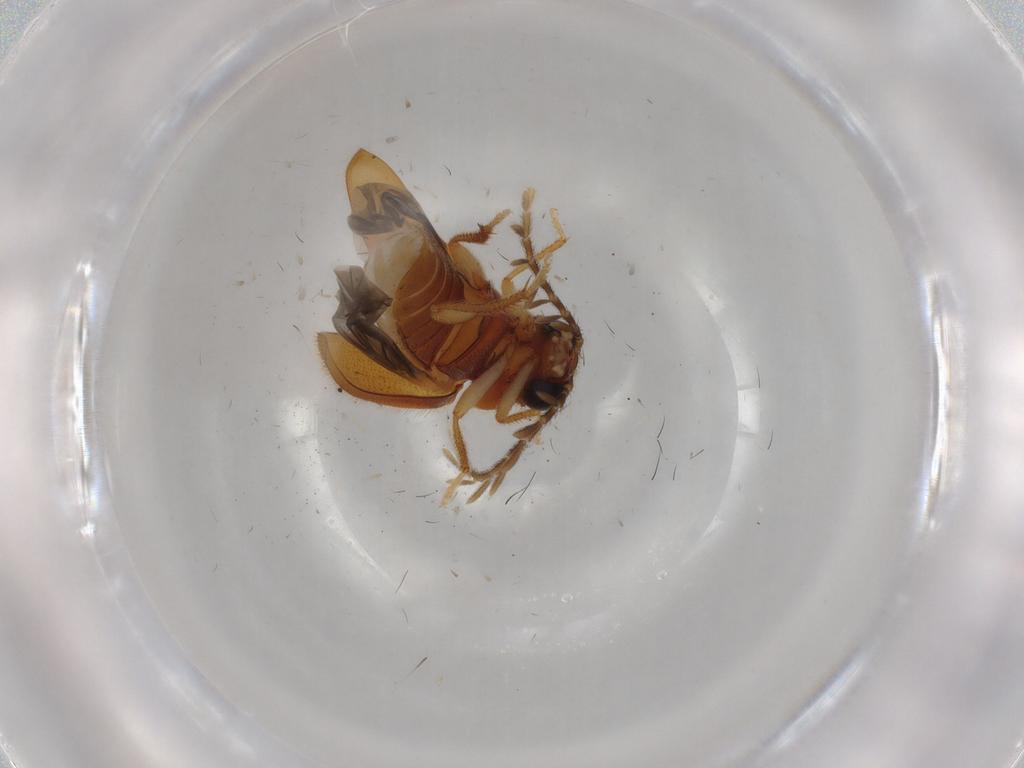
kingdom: Animalia
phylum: Arthropoda
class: Insecta
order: Coleoptera
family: Ptilodactylidae
